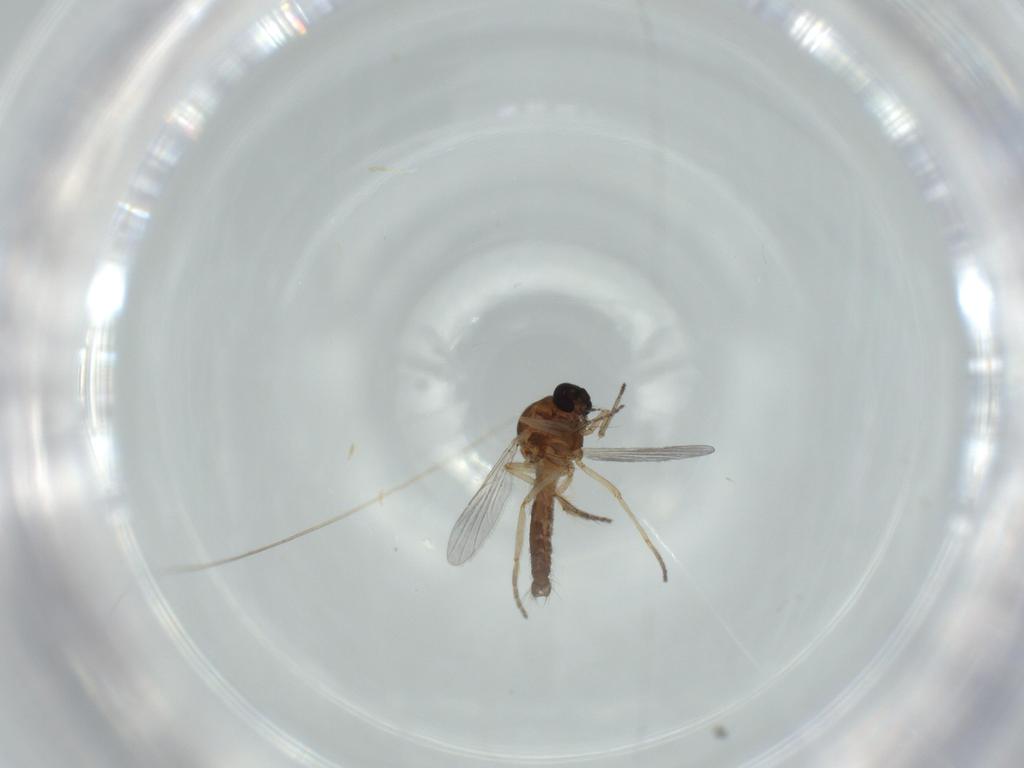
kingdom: Animalia
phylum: Arthropoda
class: Insecta
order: Diptera
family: Ceratopogonidae
